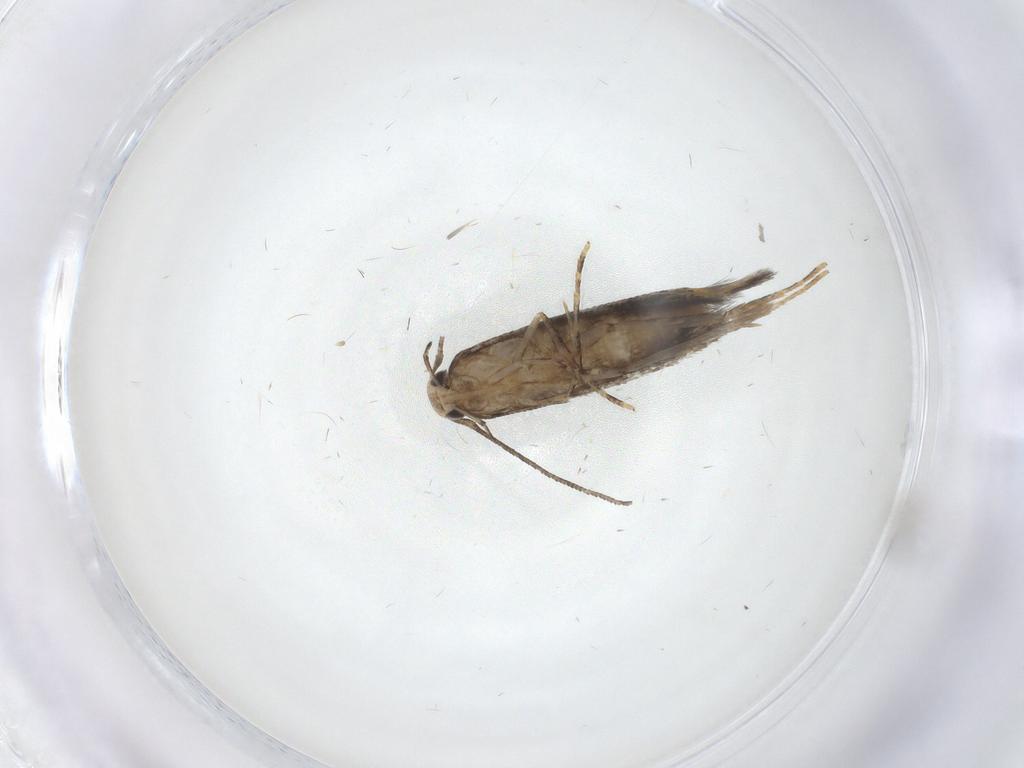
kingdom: Animalia
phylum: Arthropoda
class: Insecta
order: Lepidoptera
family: Cosmopterigidae
